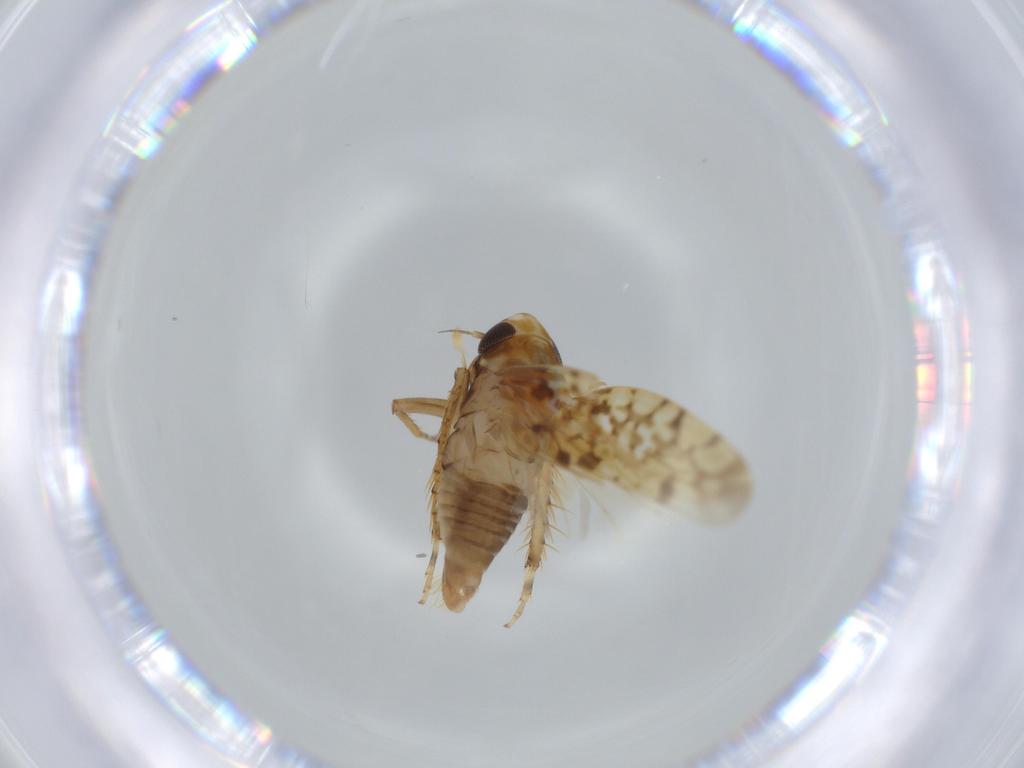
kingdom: Animalia
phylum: Arthropoda
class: Insecta
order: Hemiptera
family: Cicadellidae
